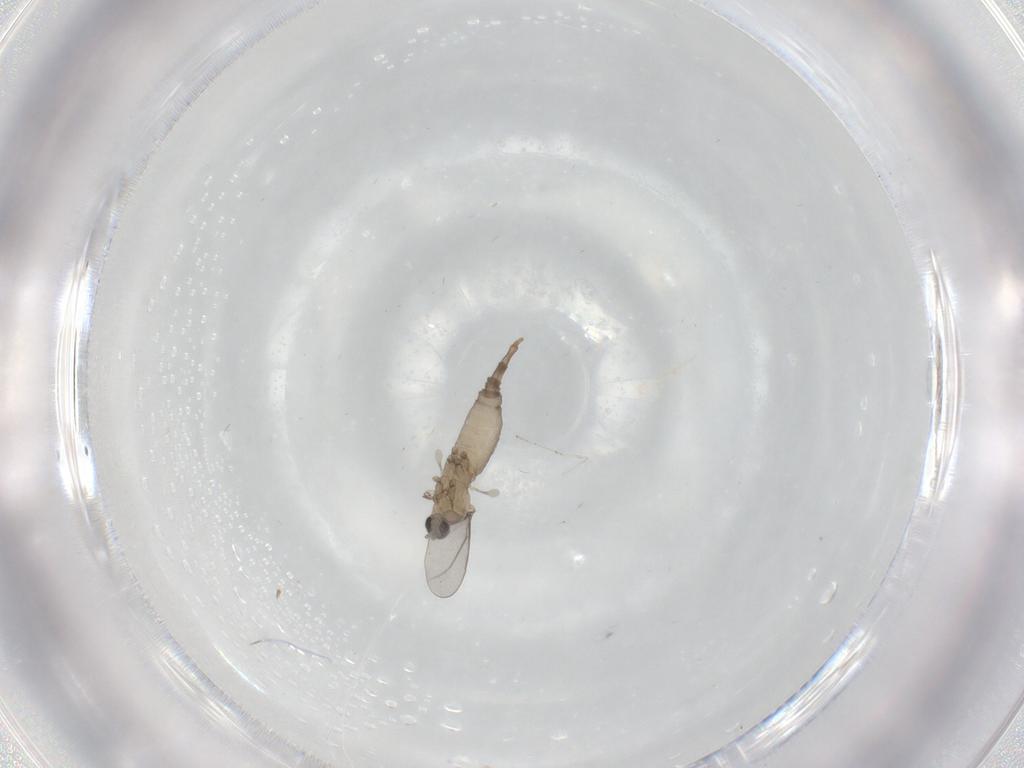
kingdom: Animalia
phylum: Arthropoda
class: Insecta
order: Diptera
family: Cecidomyiidae
